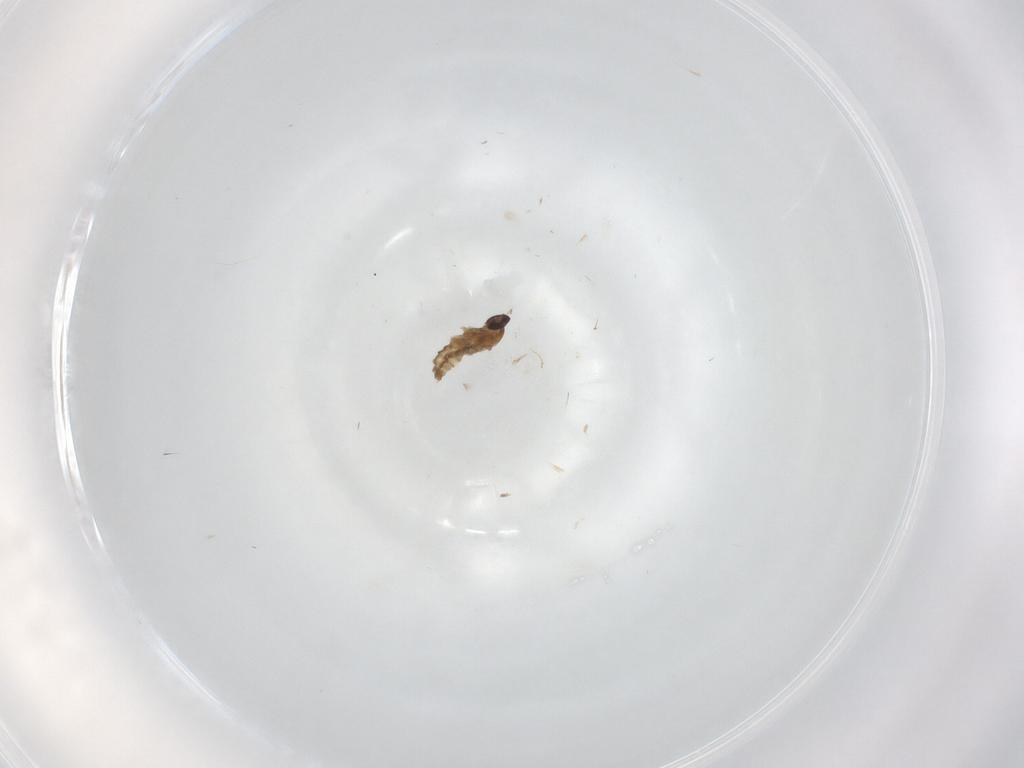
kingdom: Animalia
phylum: Arthropoda
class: Insecta
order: Diptera
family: Cecidomyiidae
